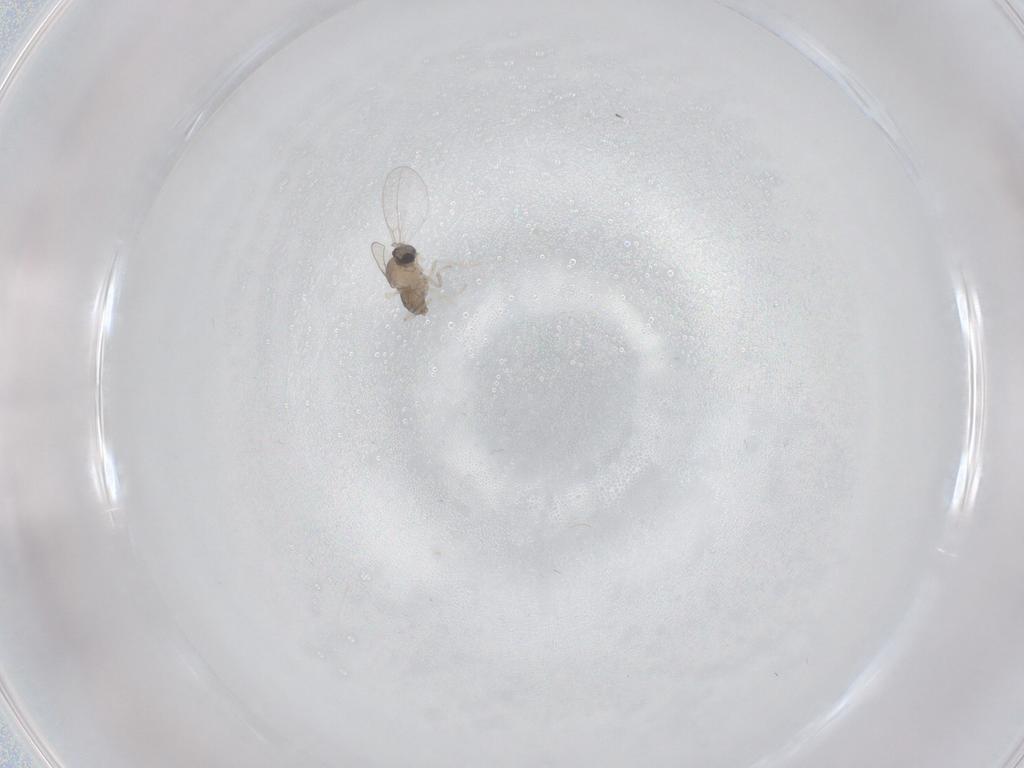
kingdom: Animalia
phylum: Arthropoda
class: Insecta
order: Diptera
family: Cecidomyiidae
